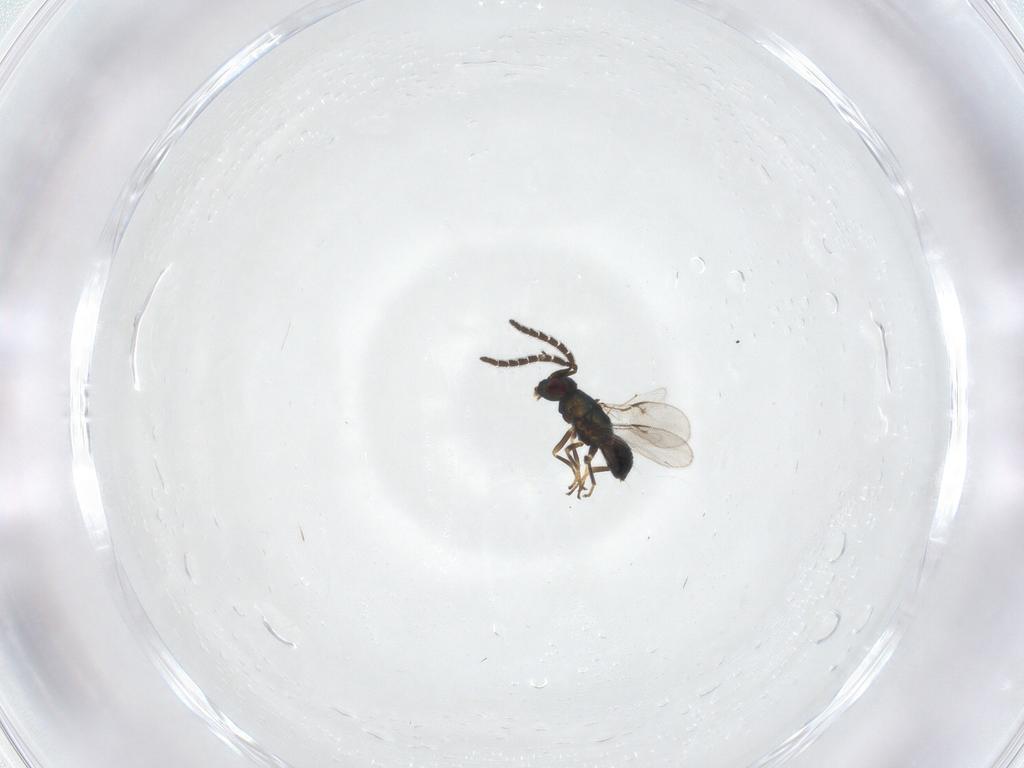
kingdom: Animalia
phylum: Arthropoda
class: Insecta
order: Hymenoptera
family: Encyrtidae
